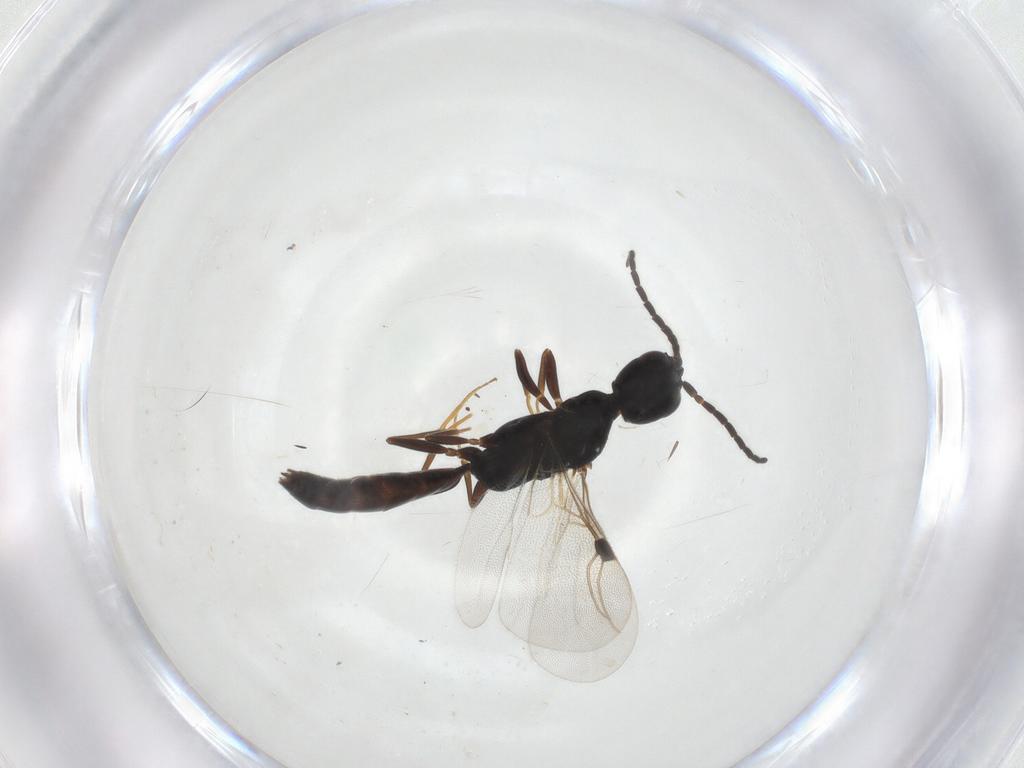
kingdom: Animalia
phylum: Arthropoda
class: Insecta
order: Hymenoptera
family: Bethylidae
